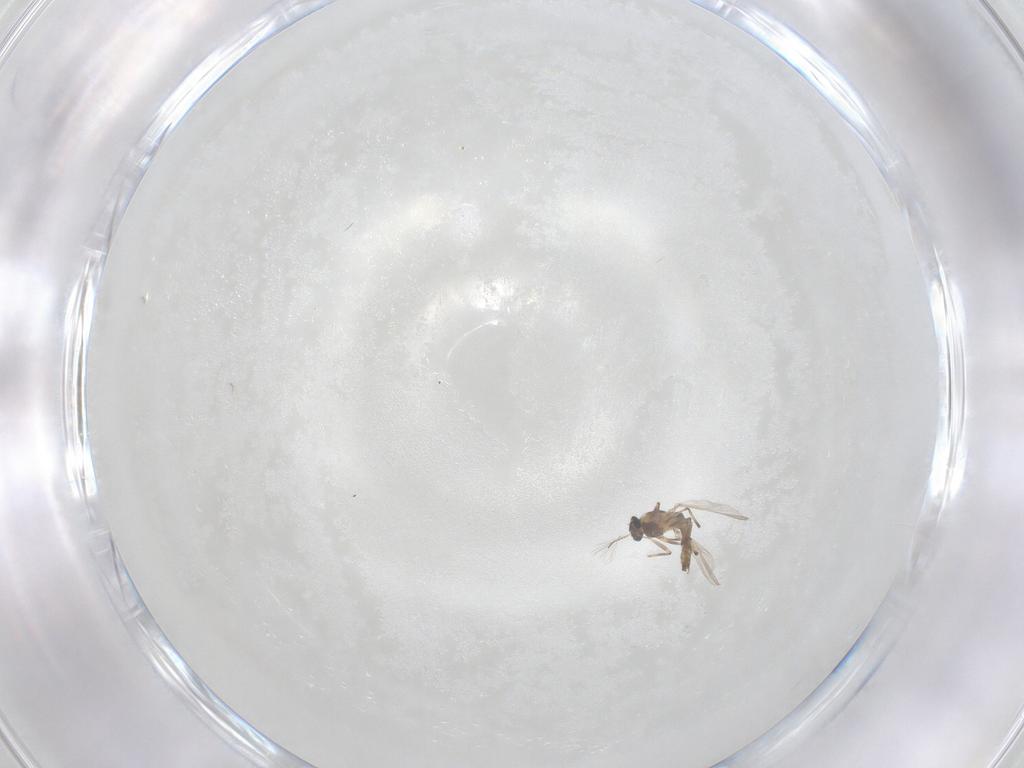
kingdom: Animalia
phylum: Arthropoda
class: Insecta
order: Diptera
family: Chironomidae
